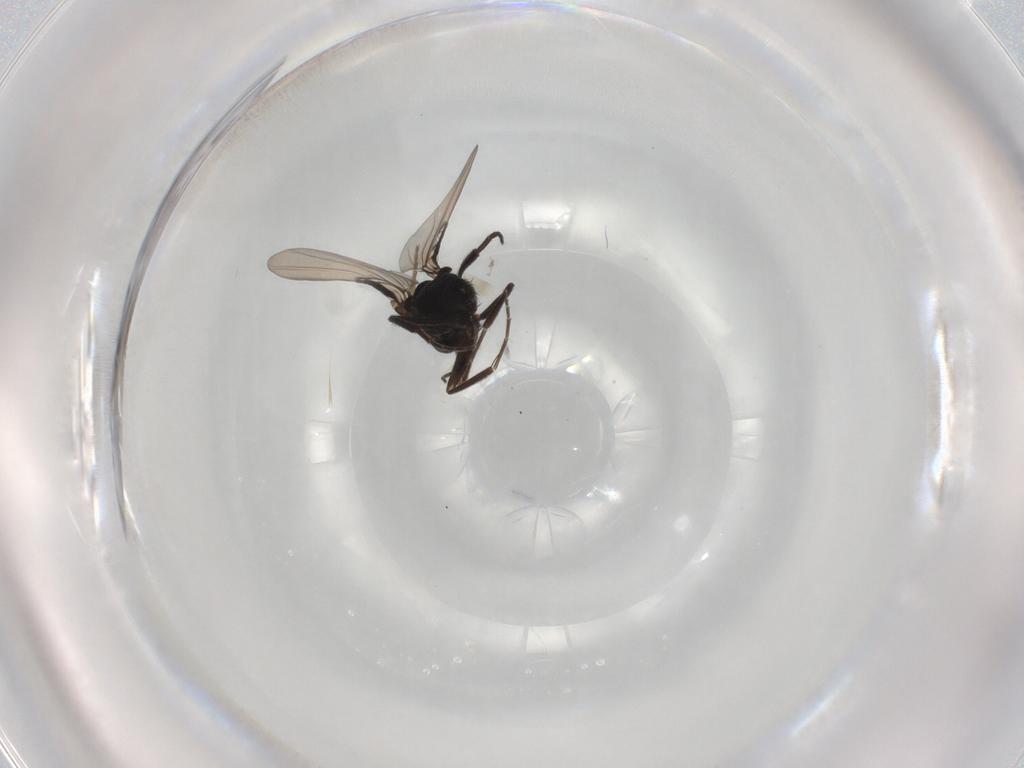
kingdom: Animalia
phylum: Arthropoda
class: Insecta
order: Diptera
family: Phoridae
